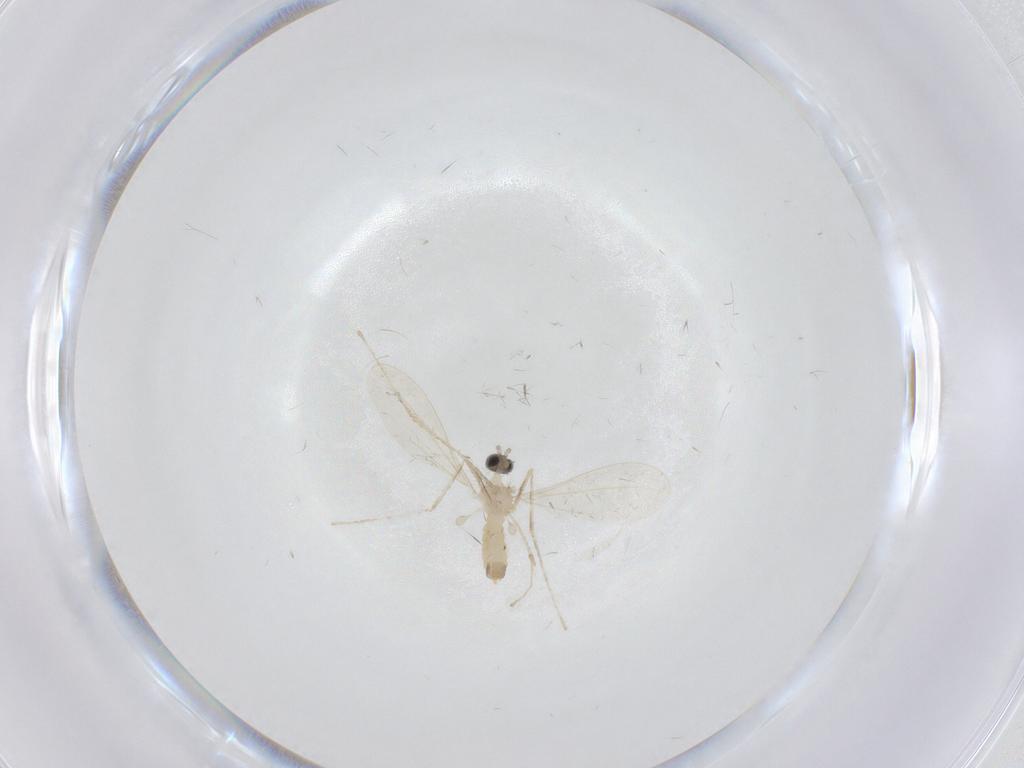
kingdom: Animalia
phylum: Arthropoda
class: Insecta
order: Diptera
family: Cecidomyiidae
